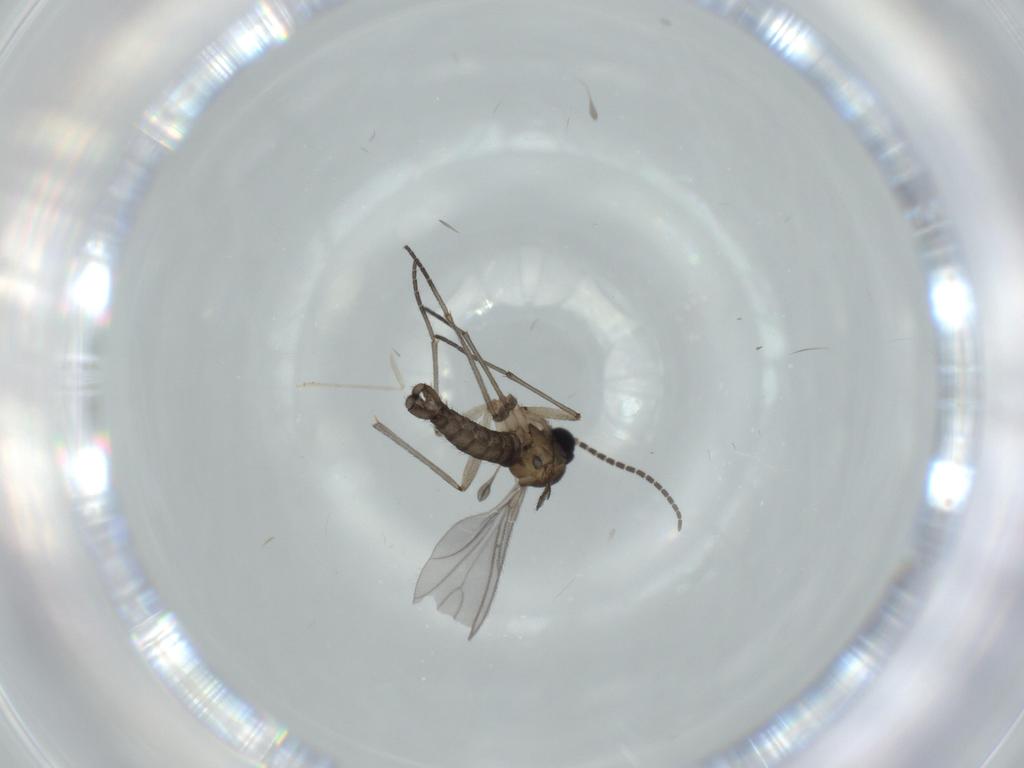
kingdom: Animalia
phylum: Arthropoda
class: Insecta
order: Diptera
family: Sciaridae
